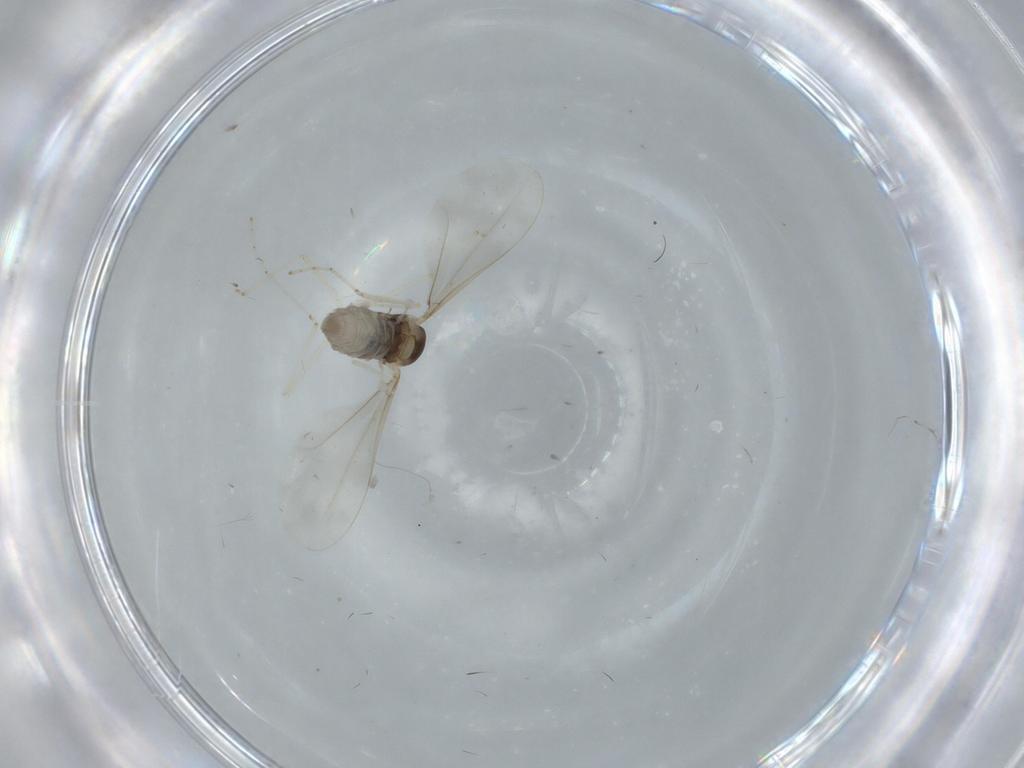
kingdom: Animalia
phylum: Arthropoda
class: Insecta
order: Diptera
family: Cecidomyiidae
